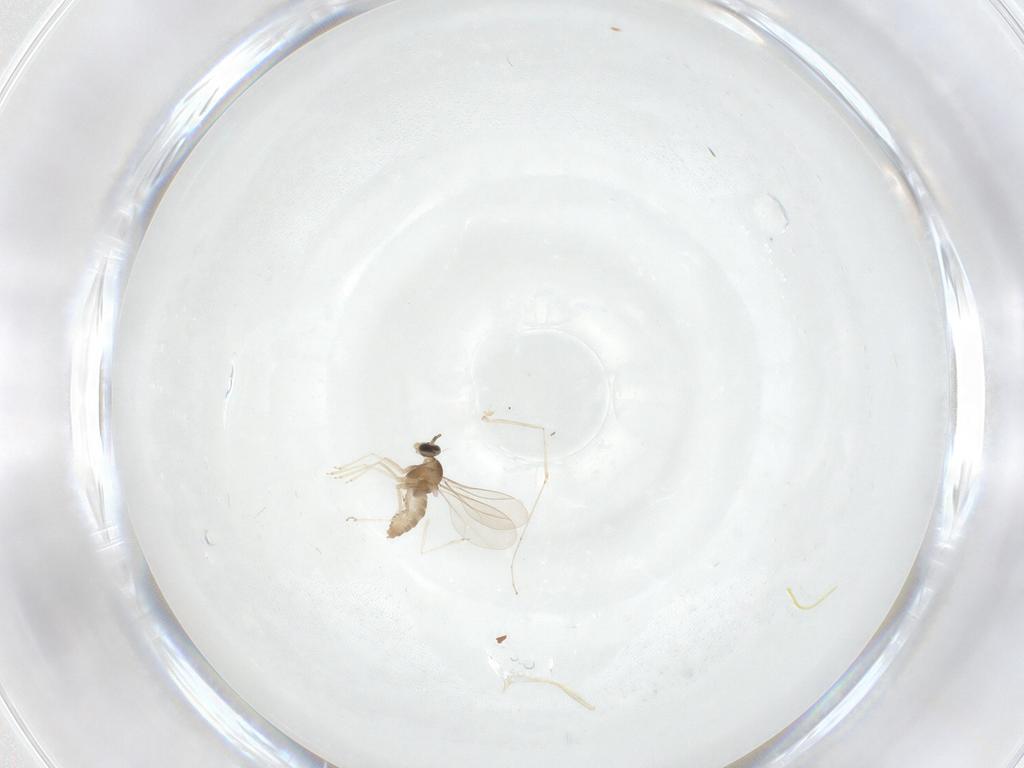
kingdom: Animalia
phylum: Arthropoda
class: Insecta
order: Diptera
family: Cecidomyiidae
